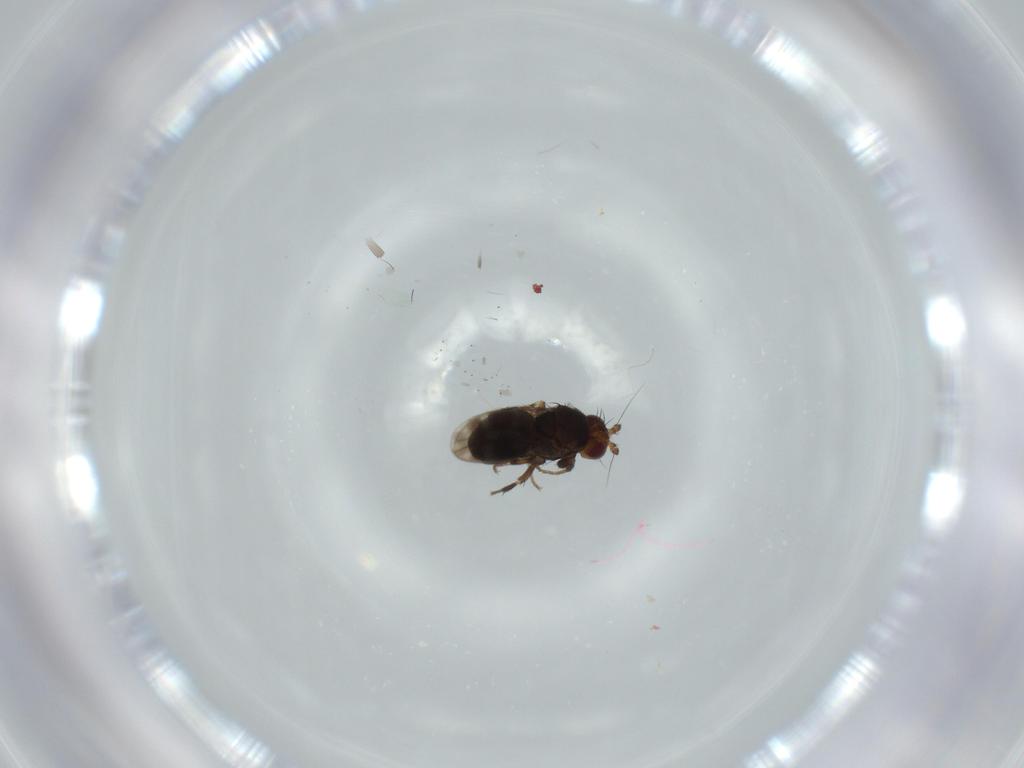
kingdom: Animalia
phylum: Arthropoda
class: Insecta
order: Diptera
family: Sphaeroceridae
